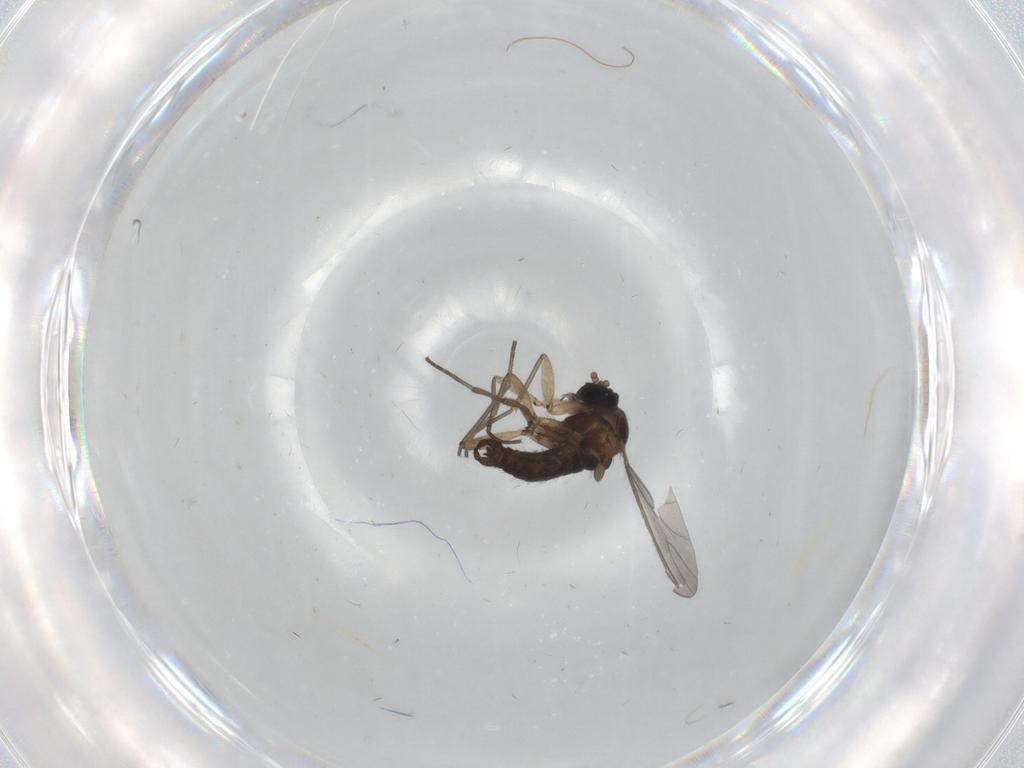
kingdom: Animalia
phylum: Arthropoda
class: Insecta
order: Diptera
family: Sciaridae
